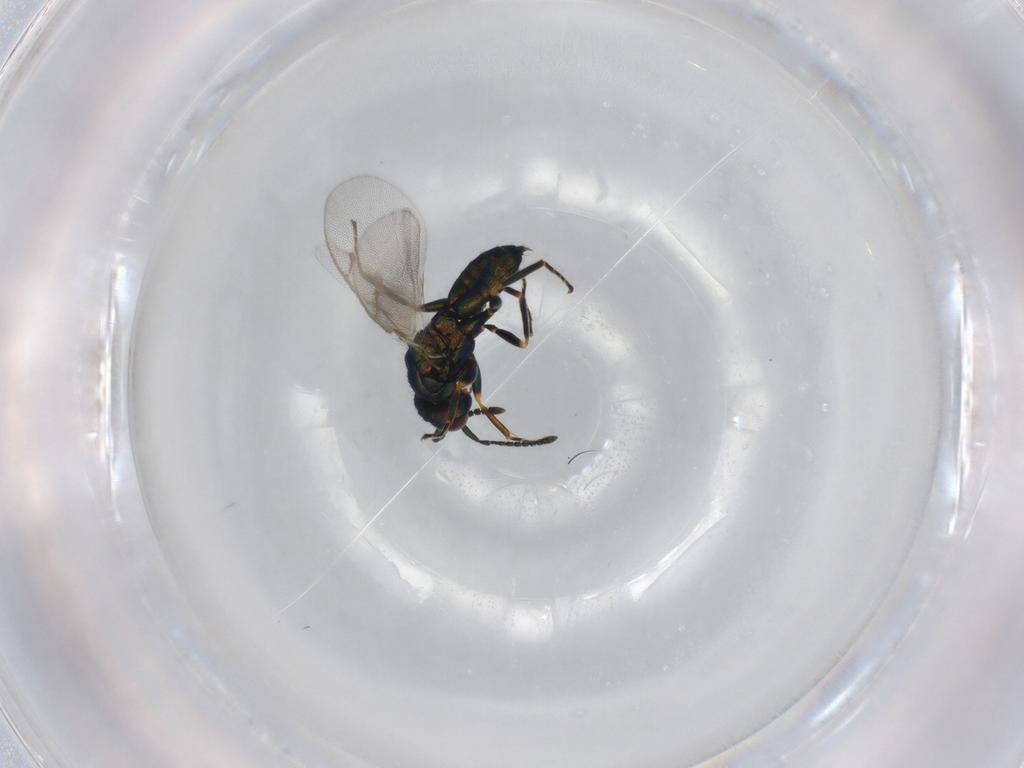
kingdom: Animalia
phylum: Arthropoda
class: Insecta
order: Hymenoptera
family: Pteromalidae
